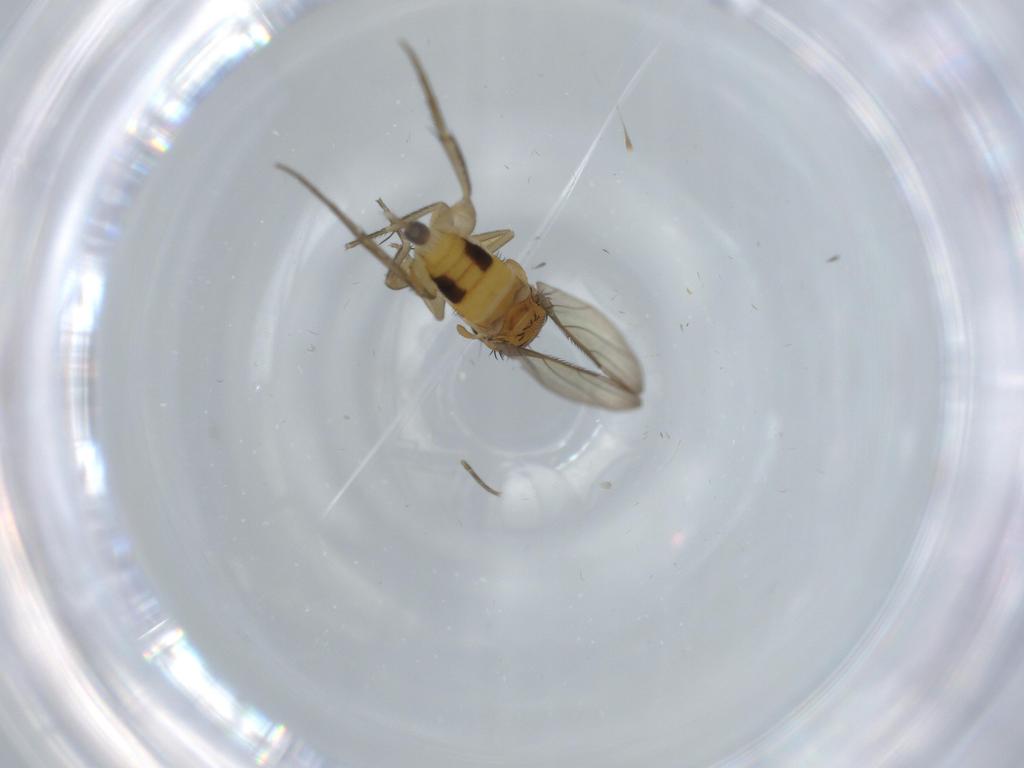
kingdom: Animalia
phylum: Arthropoda
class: Insecta
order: Diptera
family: Phoridae
